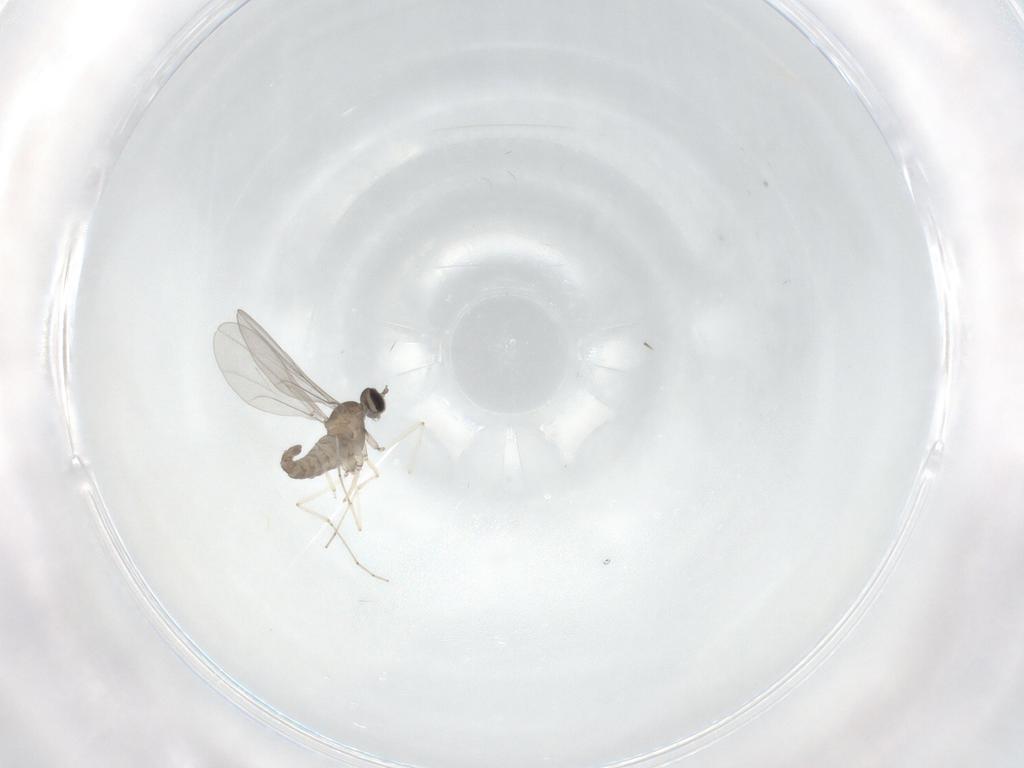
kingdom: Animalia
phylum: Arthropoda
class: Insecta
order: Diptera
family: Cecidomyiidae
